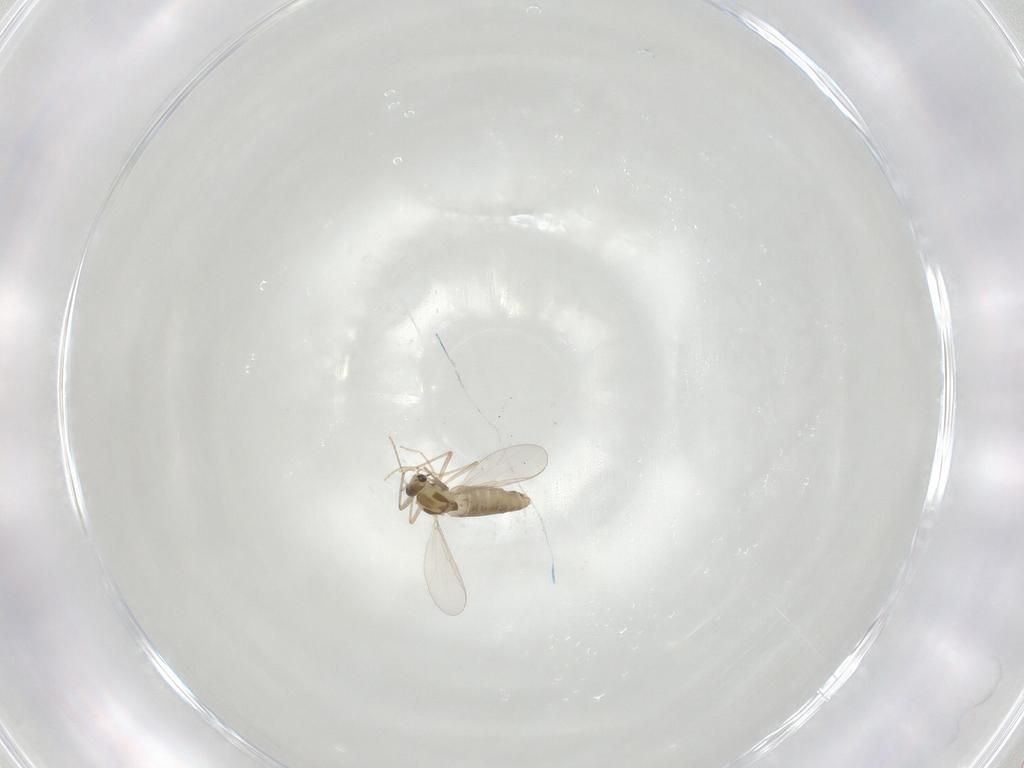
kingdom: Animalia
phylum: Arthropoda
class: Insecta
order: Diptera
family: Chironomidae
